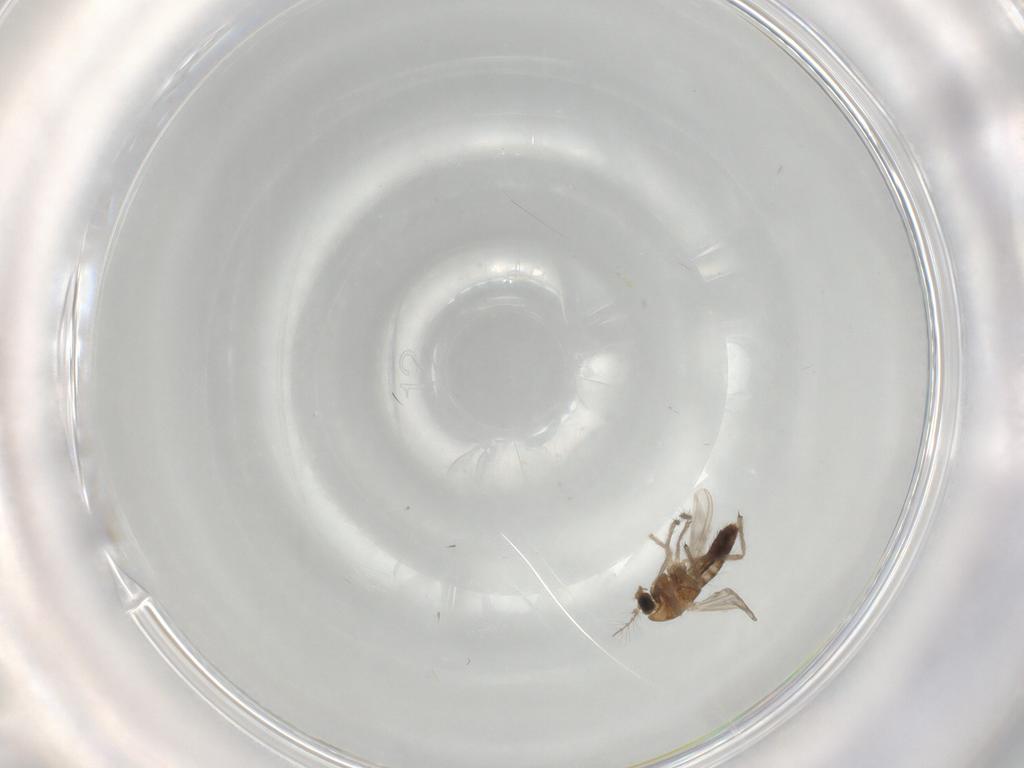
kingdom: Animalia
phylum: Arthropoda
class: Insecta
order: Diptera
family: Chironomidae
